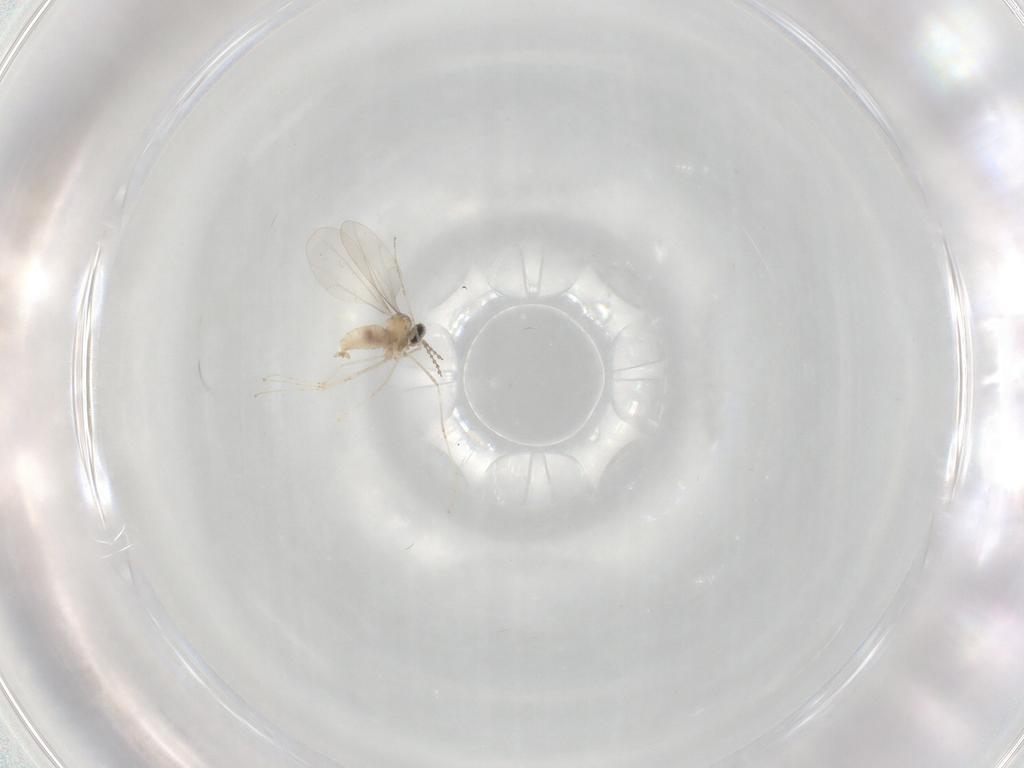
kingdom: Animalia
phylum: Arthropoda
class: Insecta
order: Diptera
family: Cecidomyiidae
